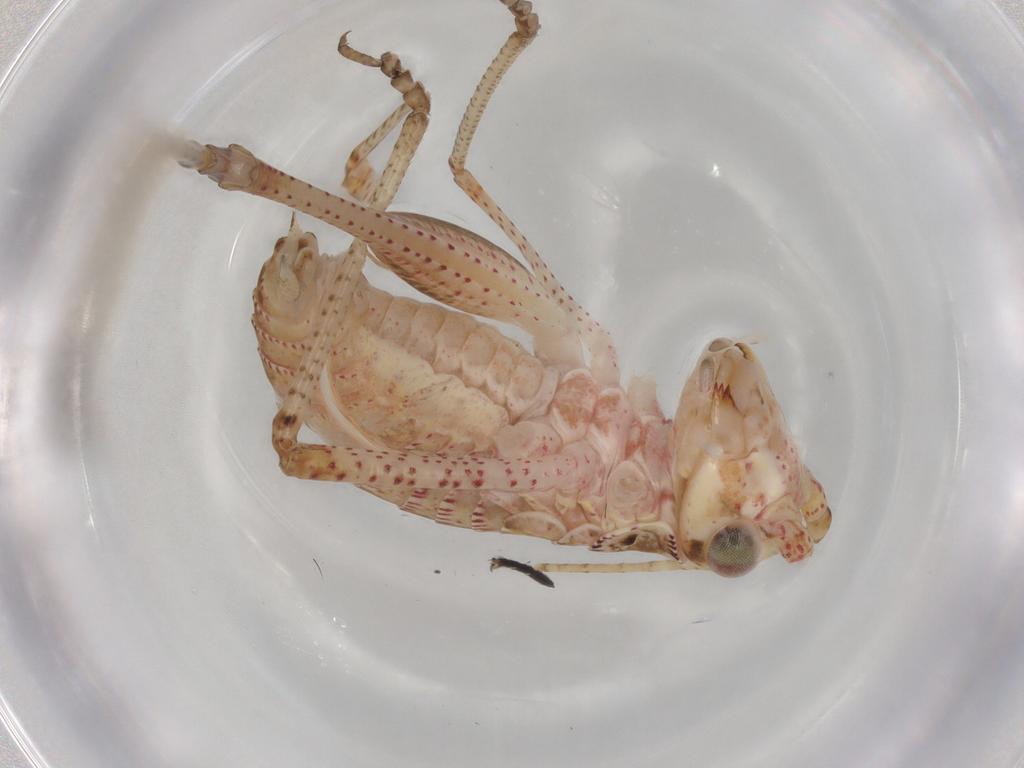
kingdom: Animalia
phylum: Arthropoda
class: Insecta
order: Orthoptera
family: Tettigoniidae
